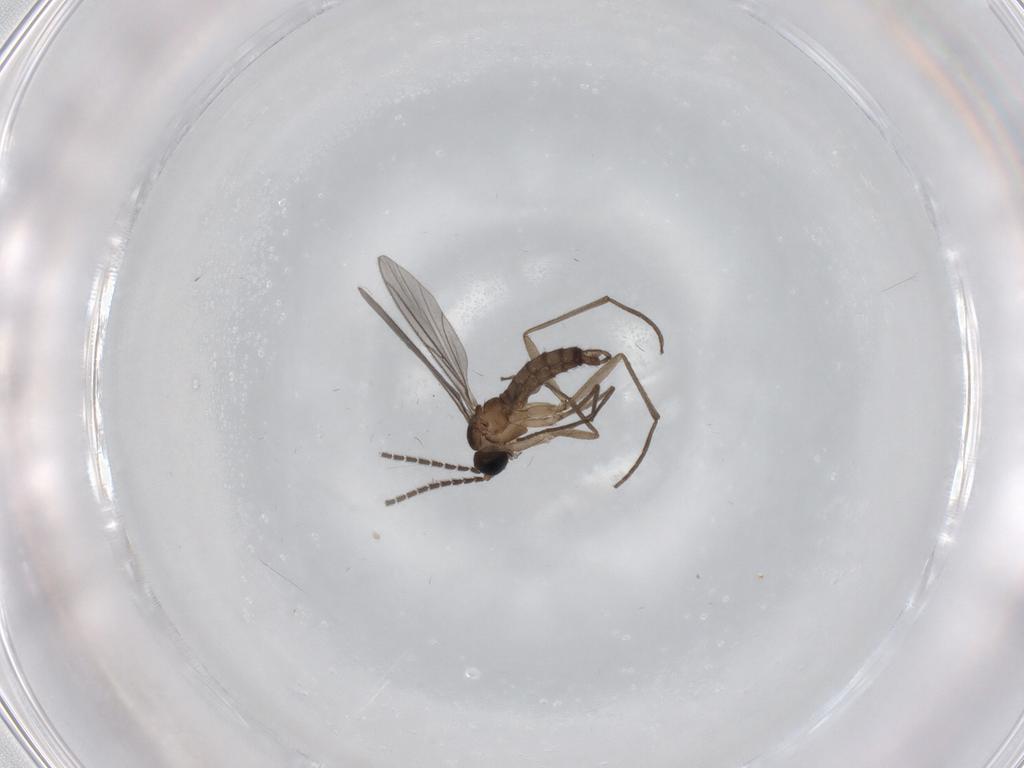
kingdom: Animalia
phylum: Arthropoda
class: Insecta
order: Diptera
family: Sciaridae
